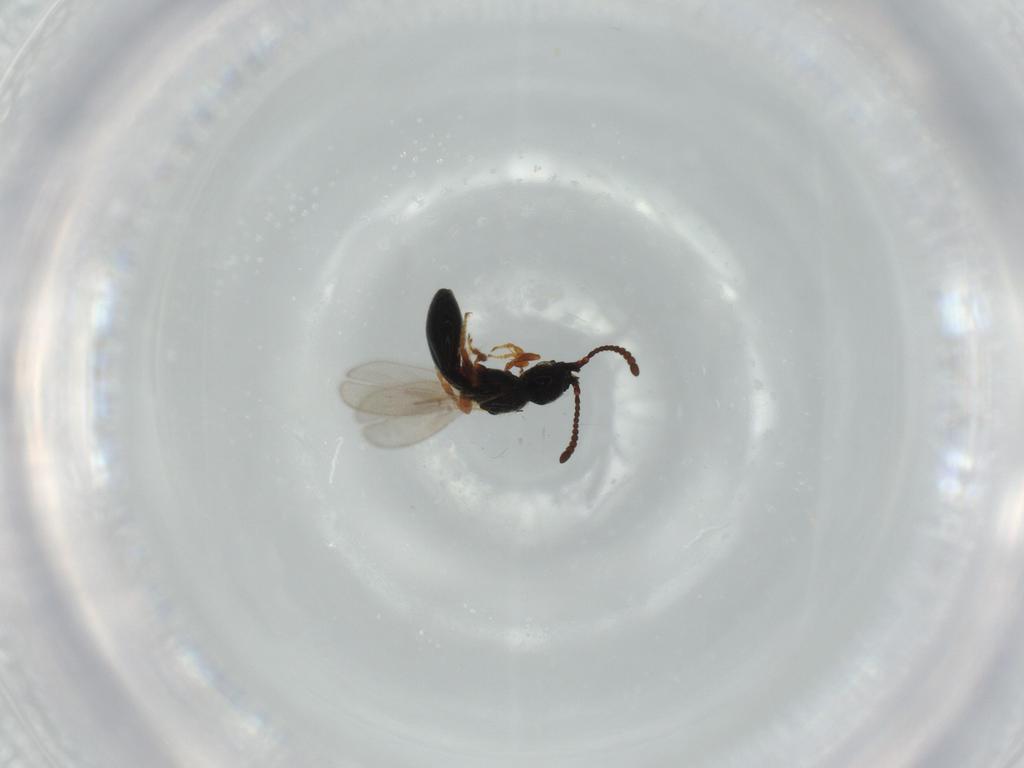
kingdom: Animalia
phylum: Arthropoda
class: Insecta
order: Hymenoptera
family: Diapriidae
